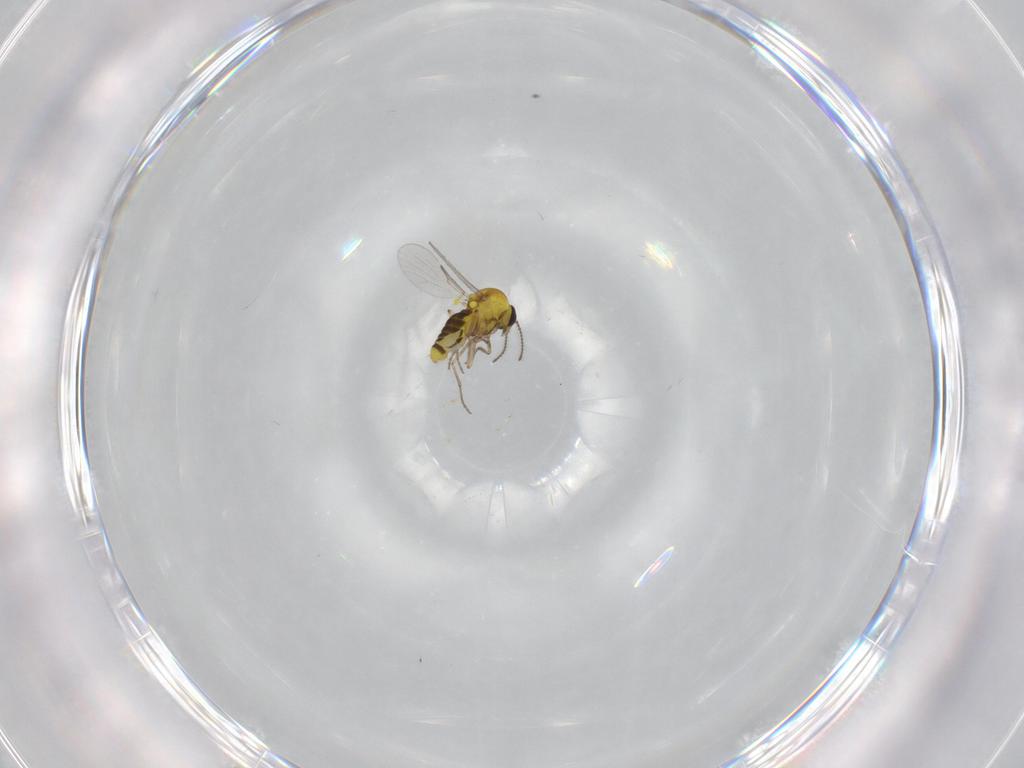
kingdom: Animalia
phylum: Arthropoda
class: Insecta
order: Diptera
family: Ceratopogonidae
